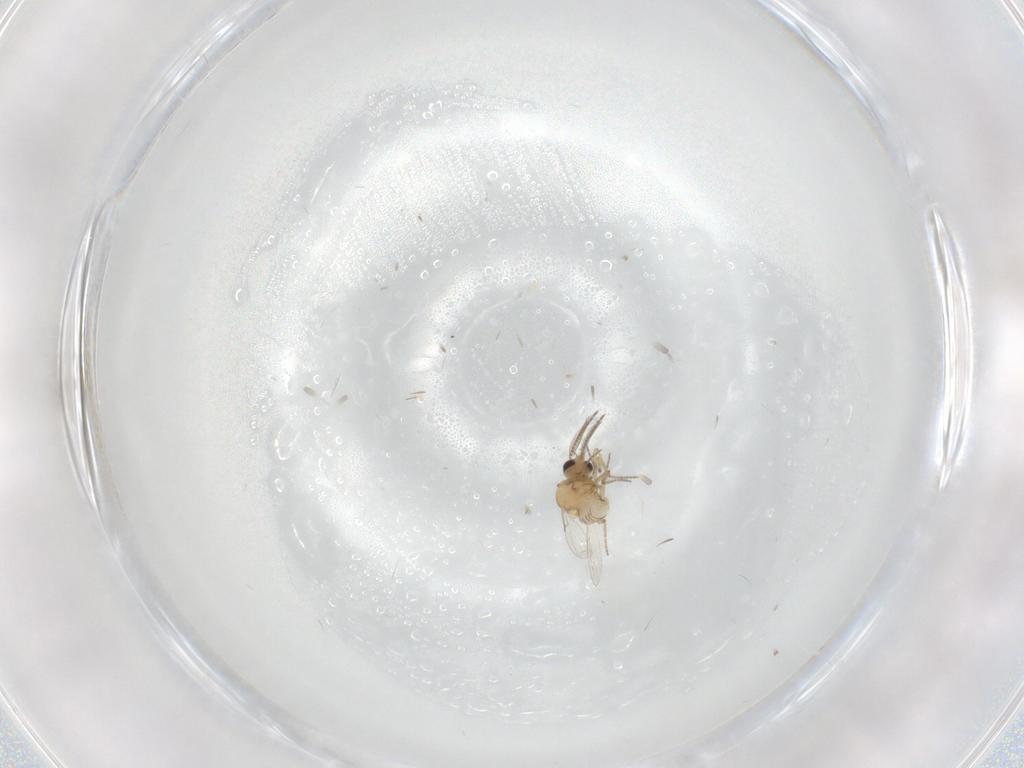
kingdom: Animalia
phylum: Arthropoda
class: Insecta
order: Diptera
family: Ceratopogonidae
